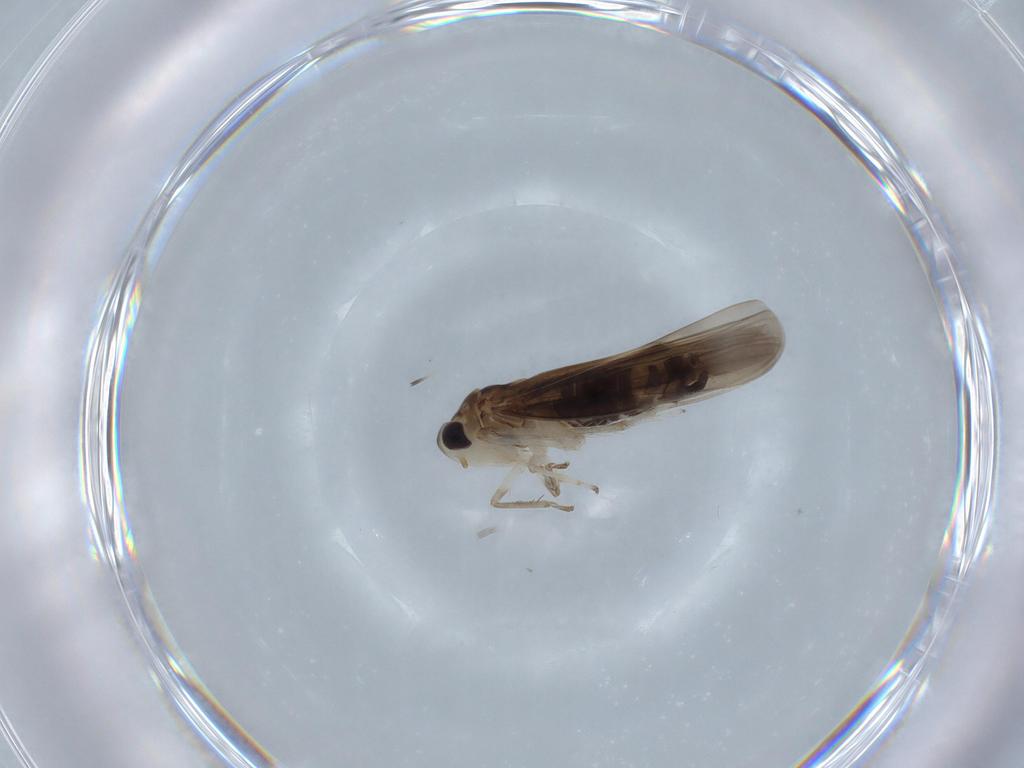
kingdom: Animalia
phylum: Arthropoda
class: Insecta
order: Hemiptera
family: Cicadellidae
